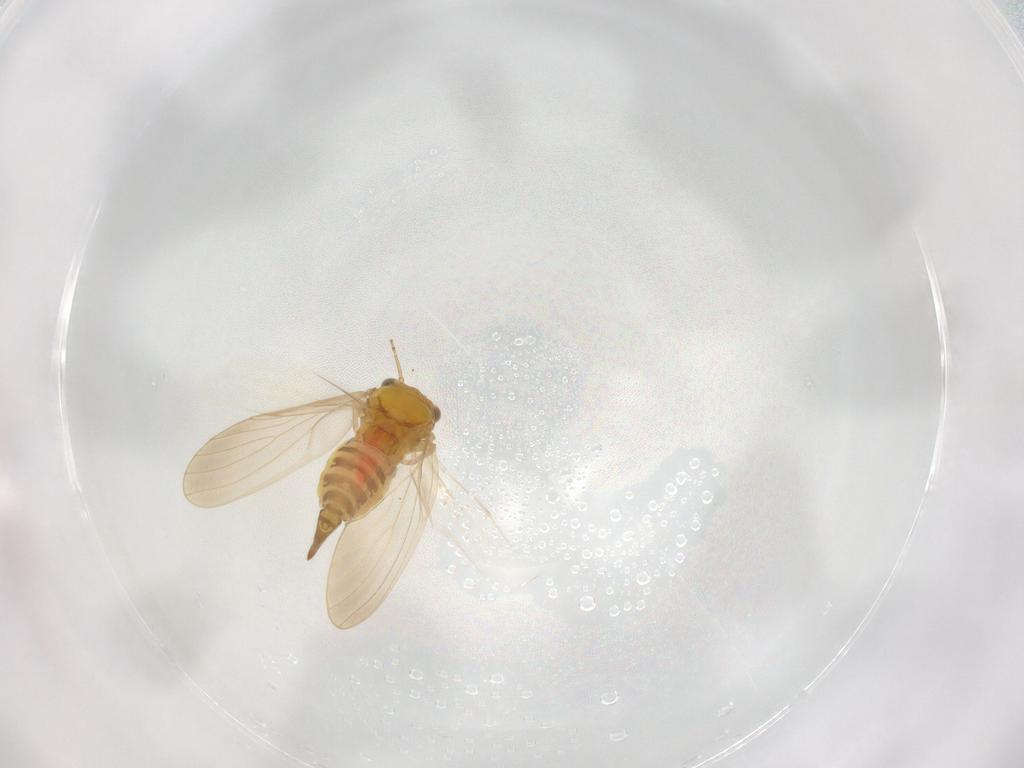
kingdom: Animalia
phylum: Arthropoda
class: Insecta
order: Hemiptera
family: Aphalaridae
